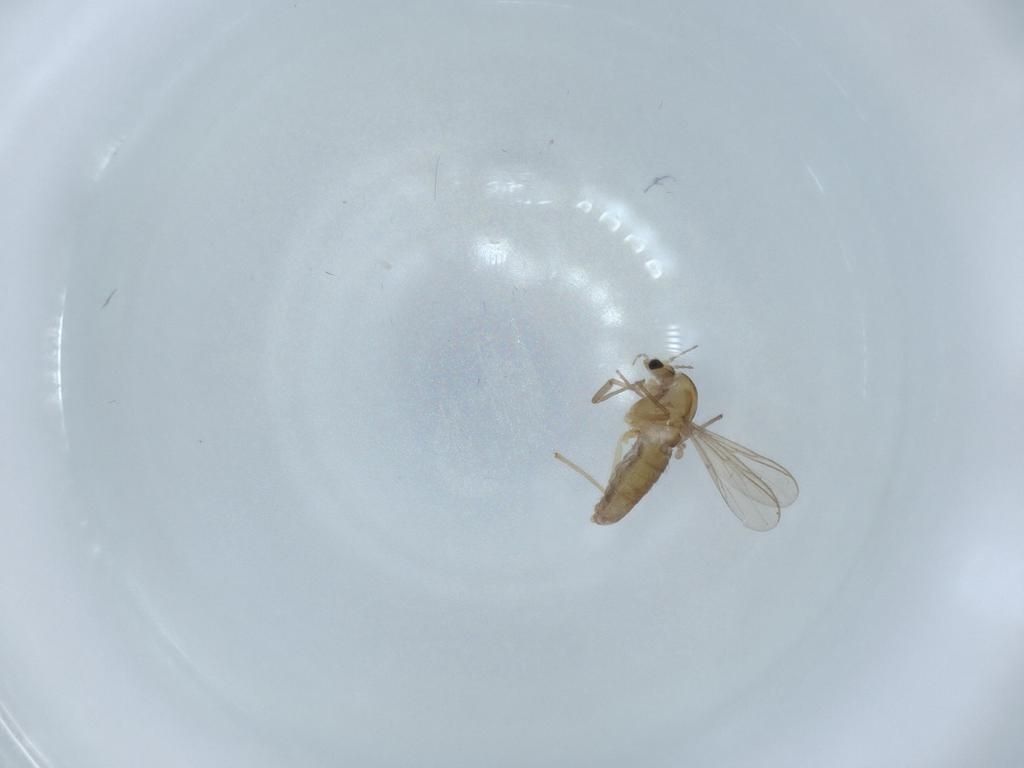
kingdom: Animalia
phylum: Arthropoda
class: Insecta
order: Diptera
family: Chironomidae
